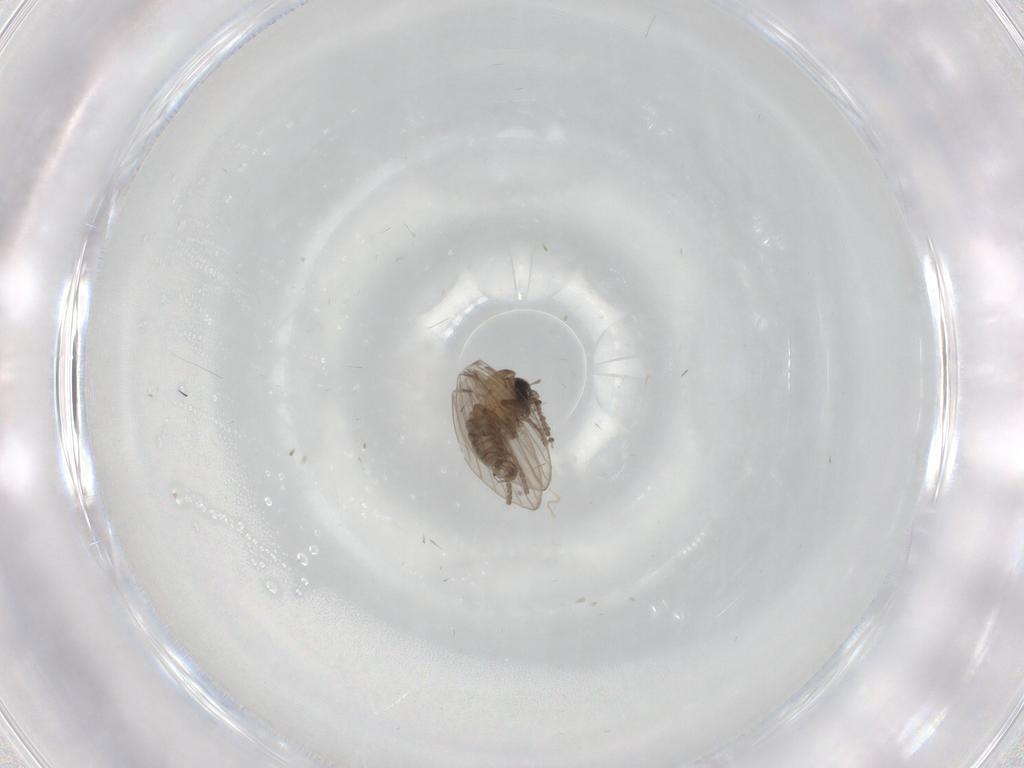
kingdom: Animalia
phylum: Arthropoda
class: Insecta
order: Diptera
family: Psychodidae
